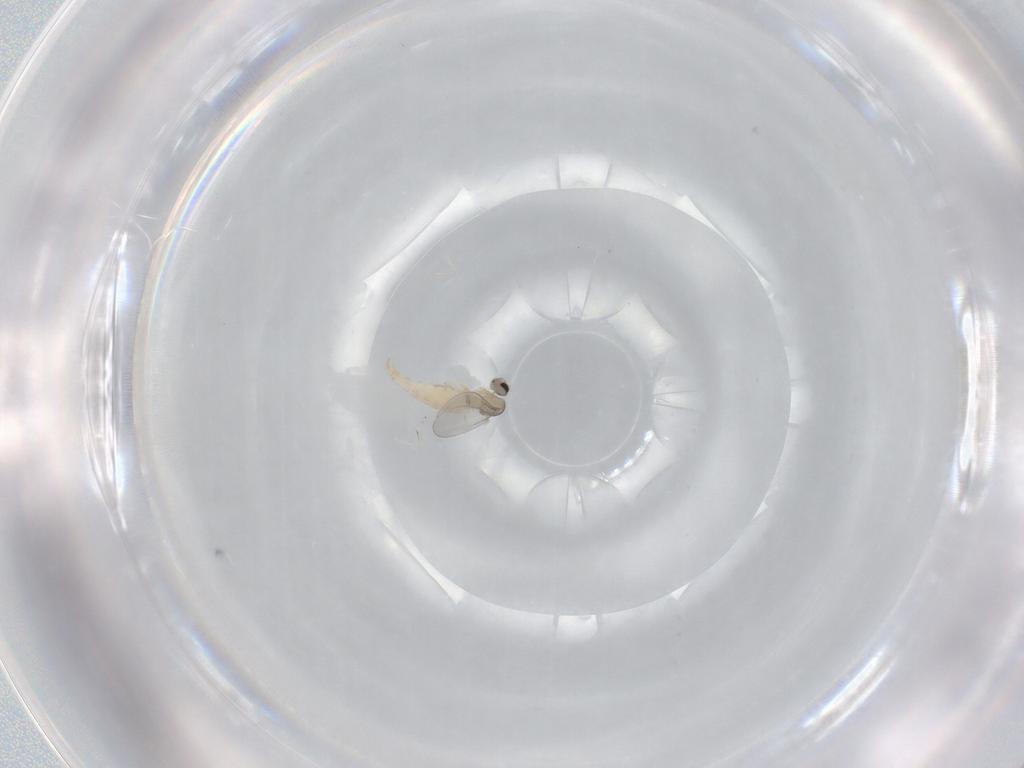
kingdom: Animalia
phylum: Arthropoda
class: Insecta
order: Diptera
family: Cecidomyiidae
